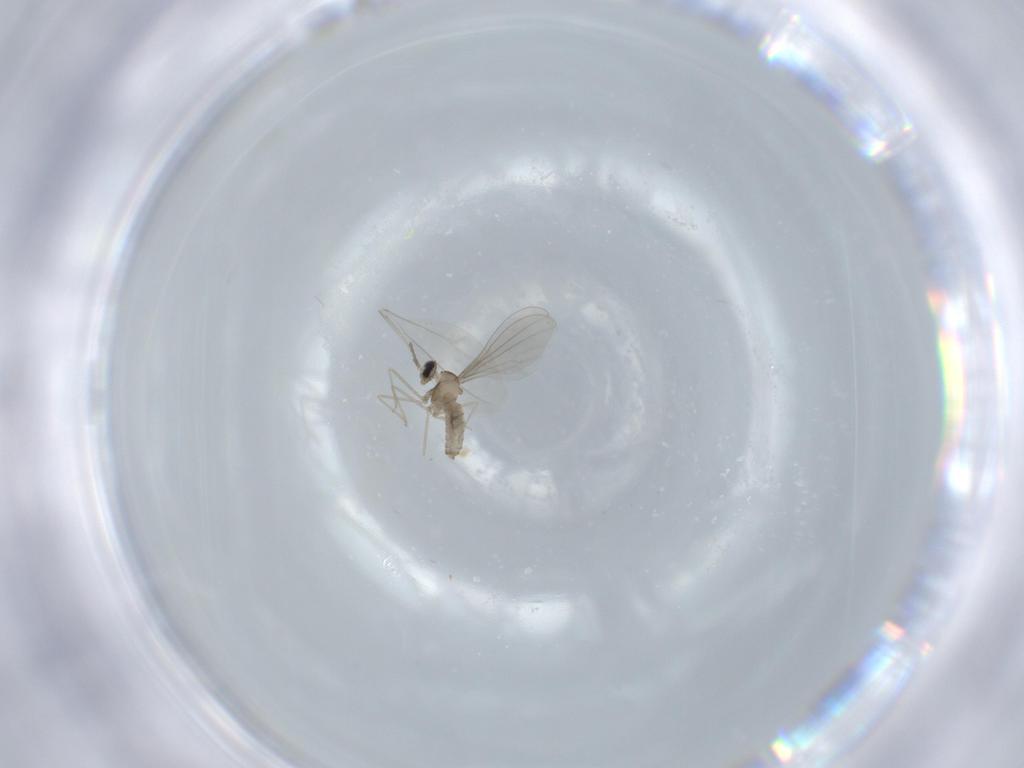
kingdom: Animalia
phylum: Arthropoda
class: Insecta
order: Diptera
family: Cecidomyiidae
